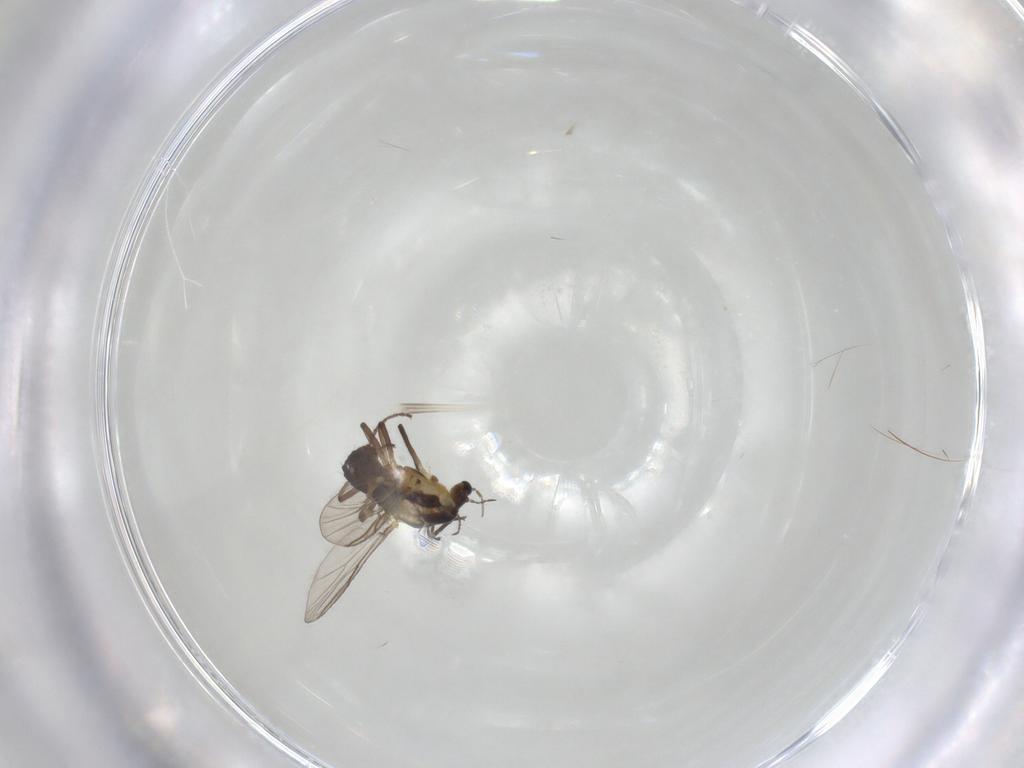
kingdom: Animalia
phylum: Arthropoda
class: Insecta
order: Diptera
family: Chironomidae
